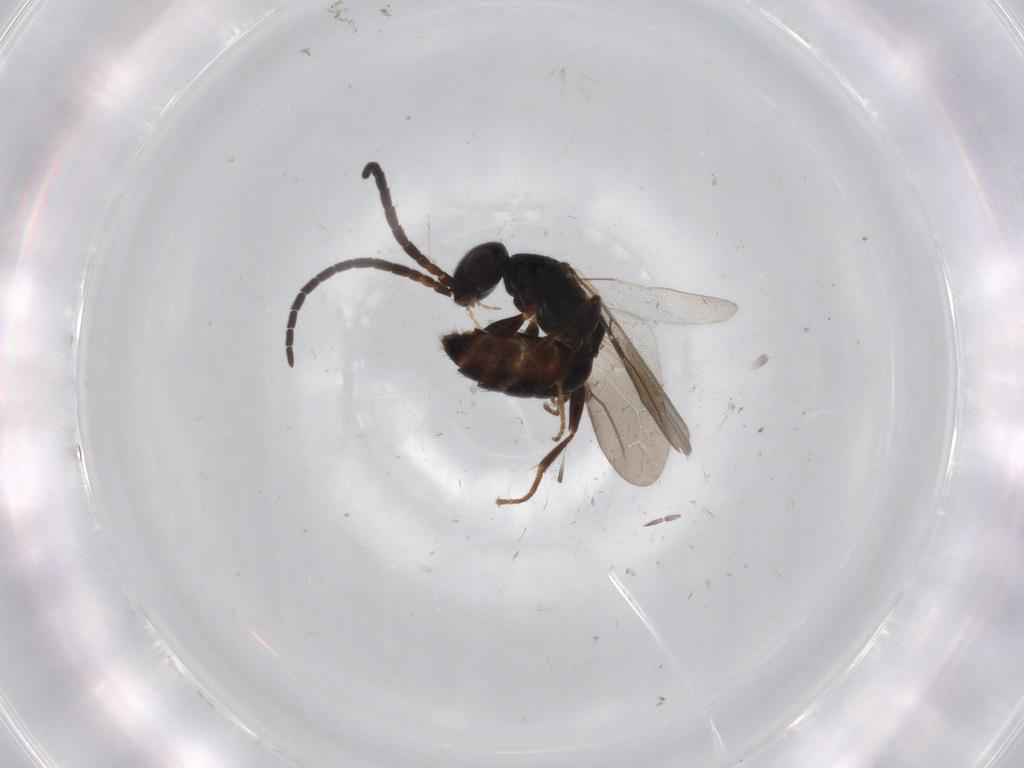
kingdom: Animalia
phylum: Arthropoda
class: Insecta
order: Hymenoptera
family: Bethylidae
